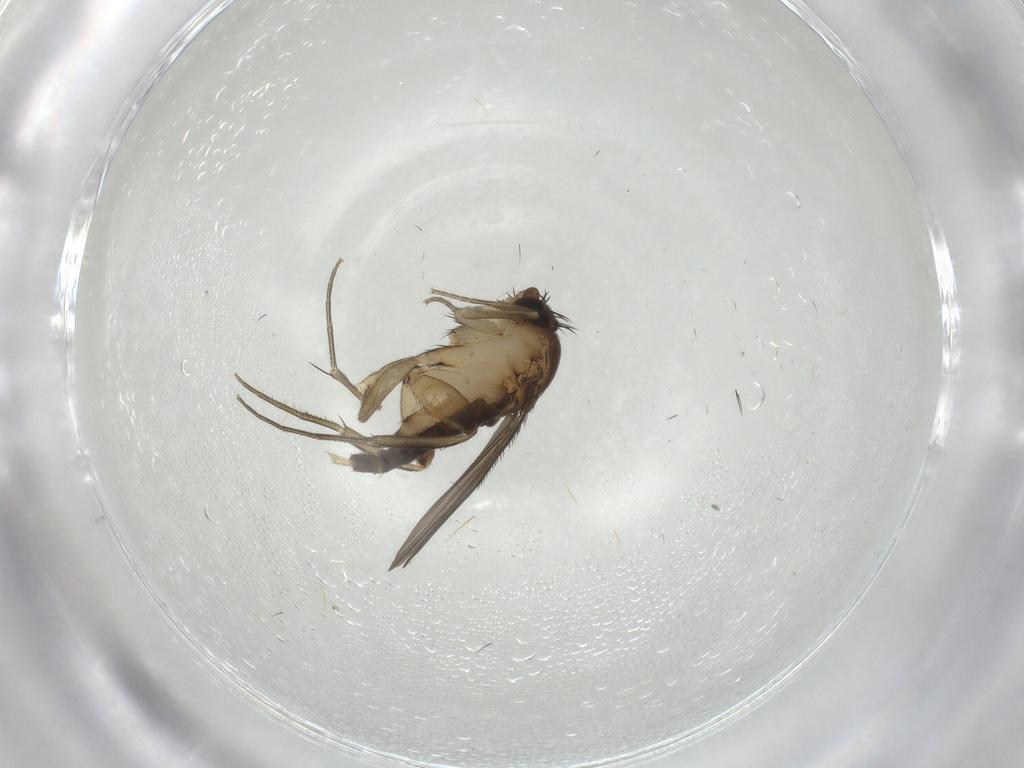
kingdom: Animalia
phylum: Arthropoda
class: Insecta
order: Diptera
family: Phoridae
